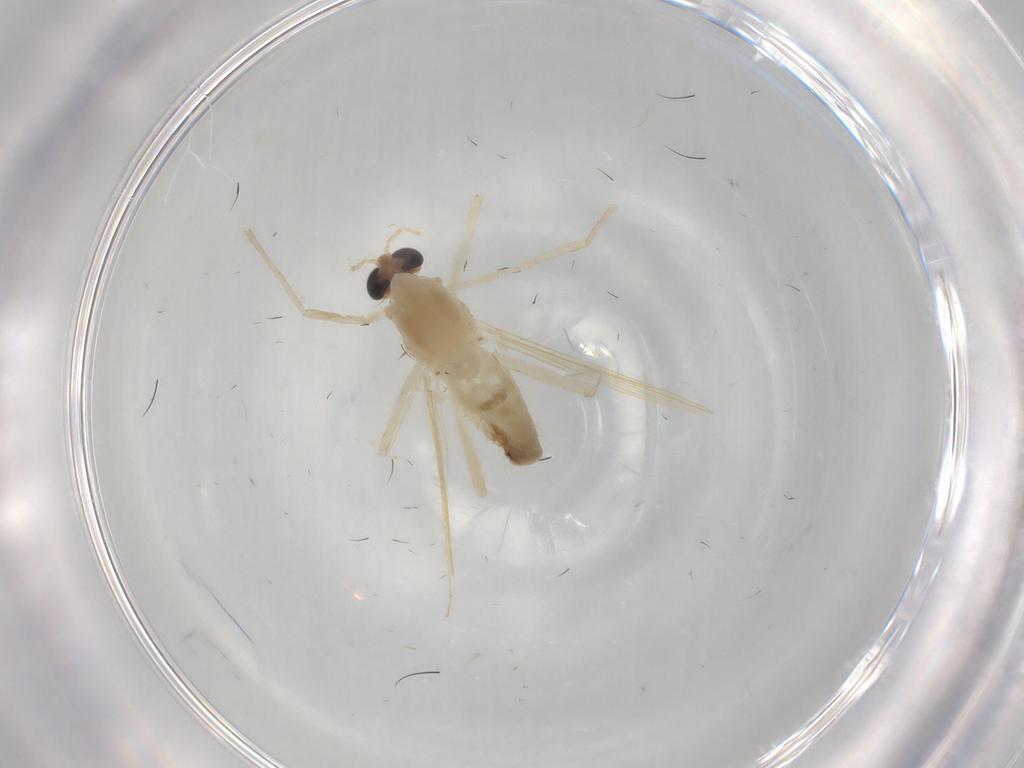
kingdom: Animalia
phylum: Arthropoda
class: Insecta
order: Diptera
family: Chironomidae
